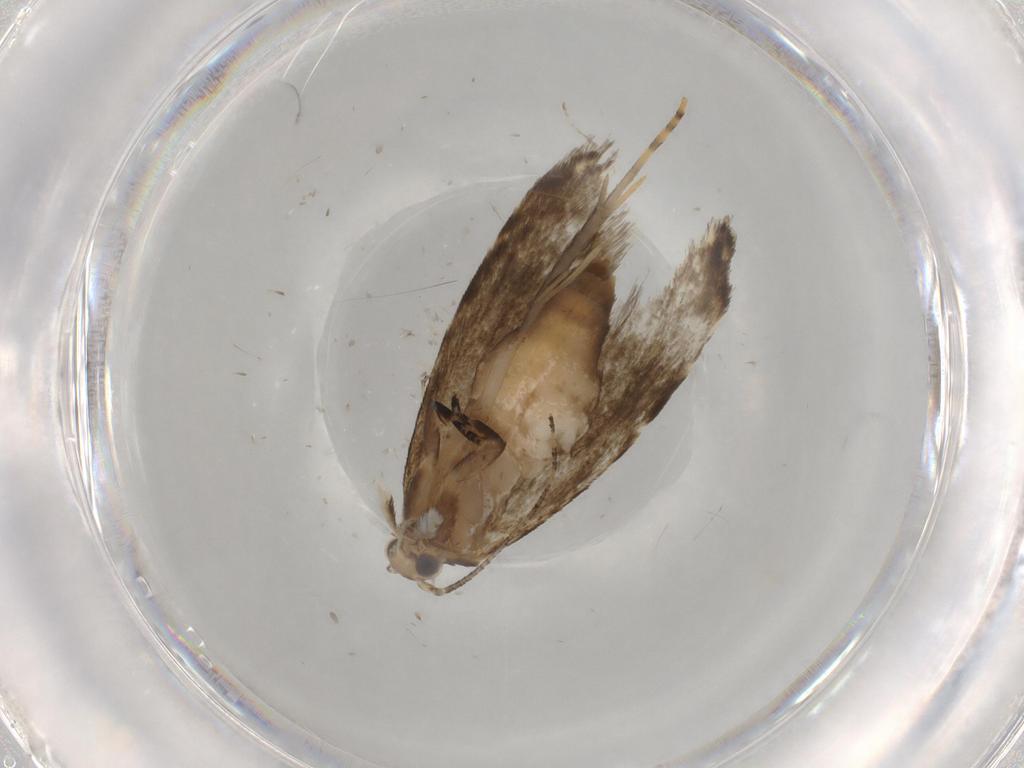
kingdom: Animalia
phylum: Arthropoda
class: Insecta
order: Lepidoptera
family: Tineidae
